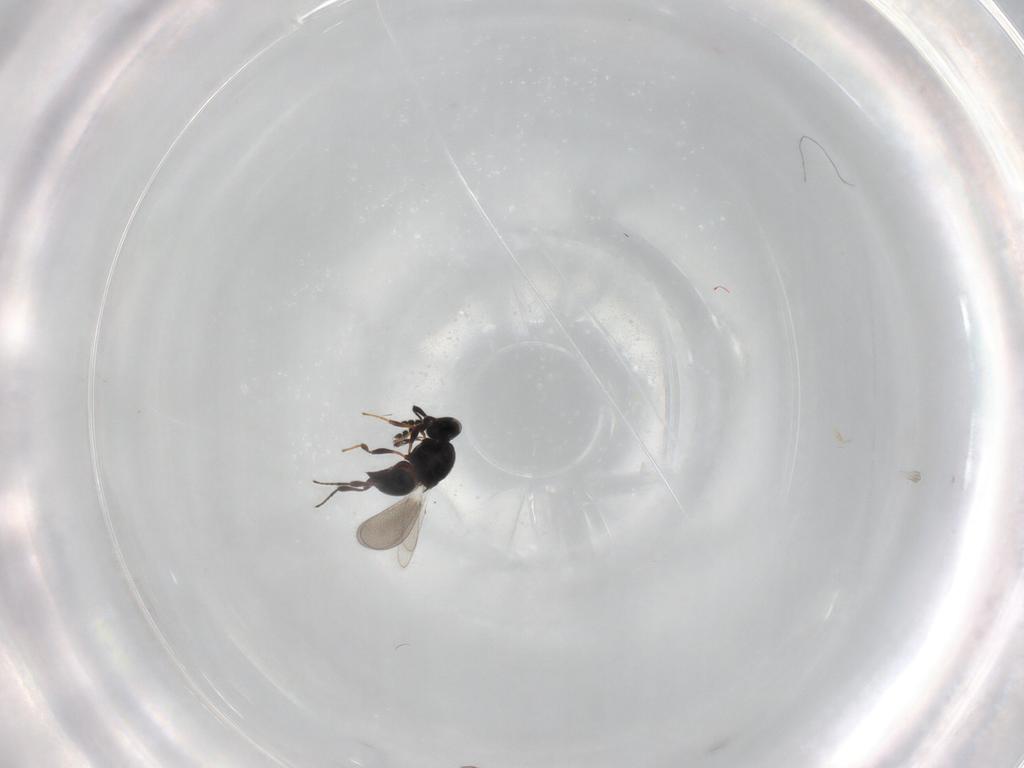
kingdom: Animalia
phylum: Arthropoda
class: Insecta
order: Hymenoptera
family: Platygastridae
